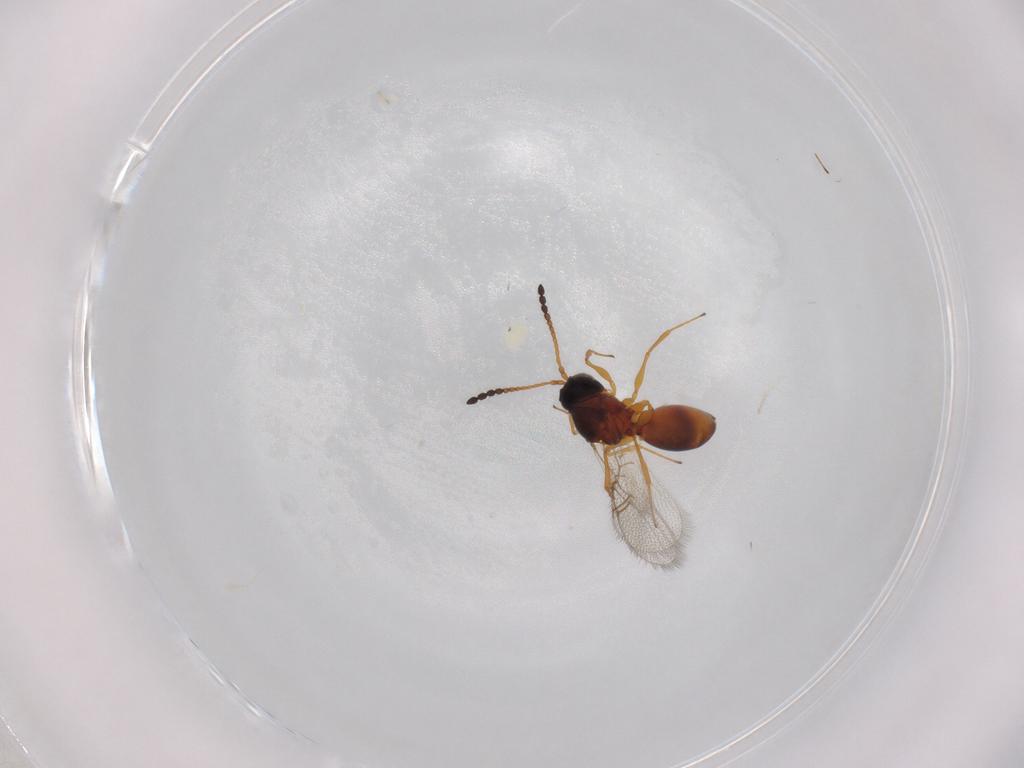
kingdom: Animalia
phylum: Arthropoda
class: Insecta
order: Hymenoptera
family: Figitidae
